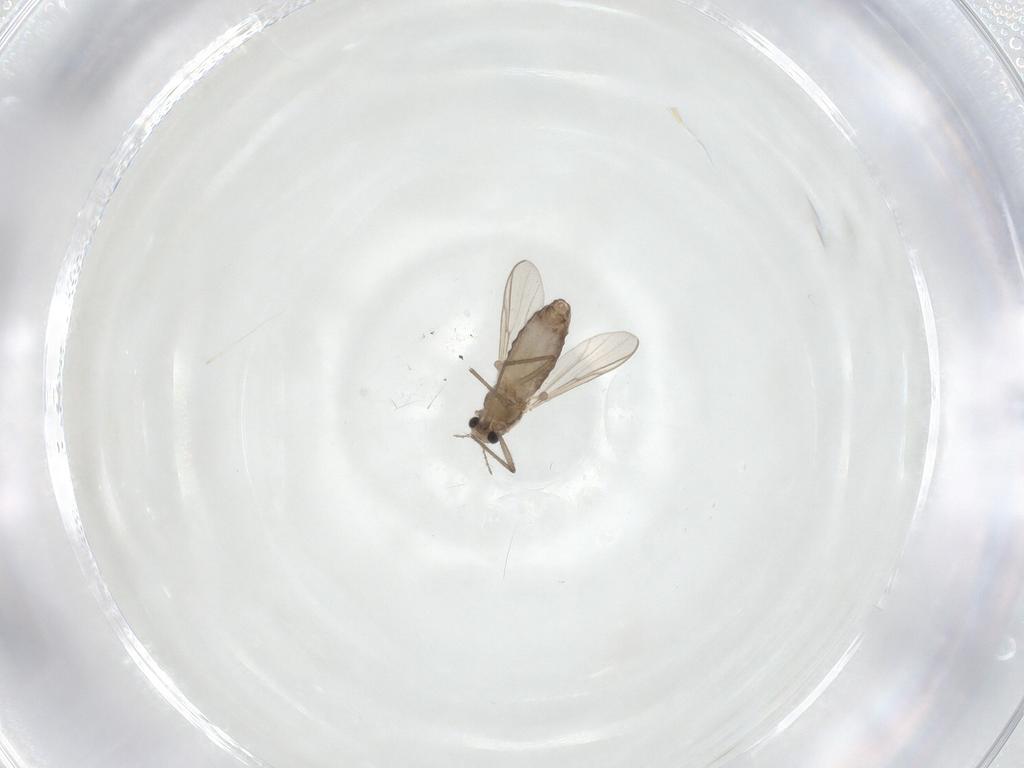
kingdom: Animalia
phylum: Arthropoda
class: Insecta
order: Diptera
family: Chironomidae
